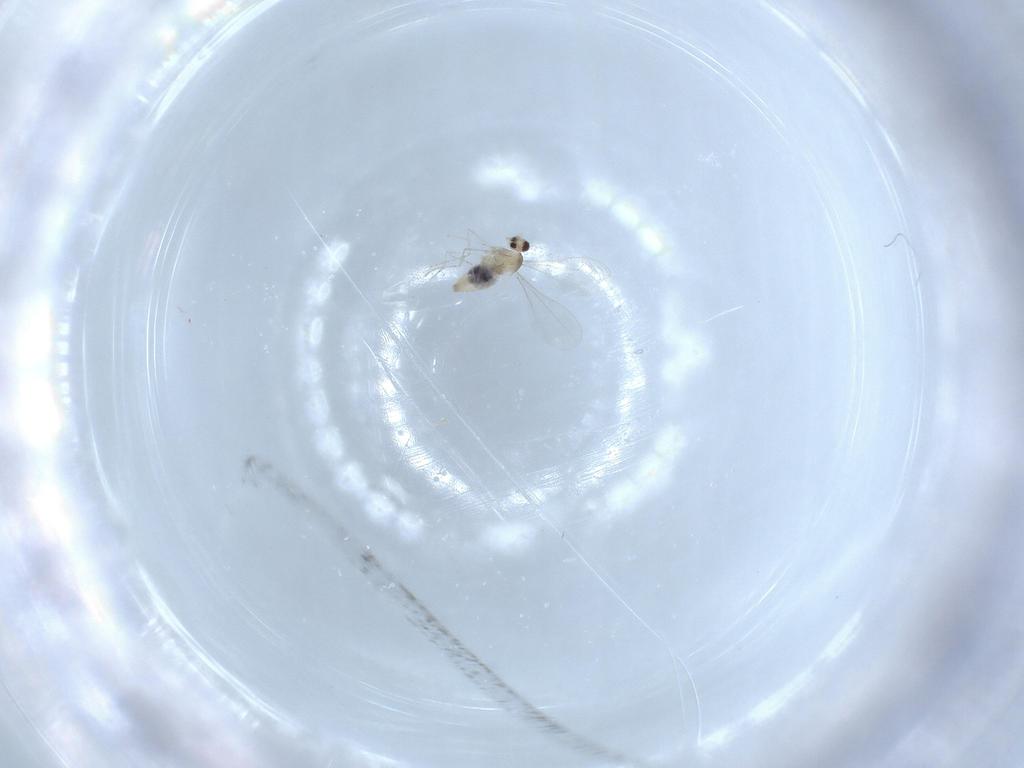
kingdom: Animalia
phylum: Arthropoda
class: Insecta
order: Diptera
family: Cecidomyiidae
